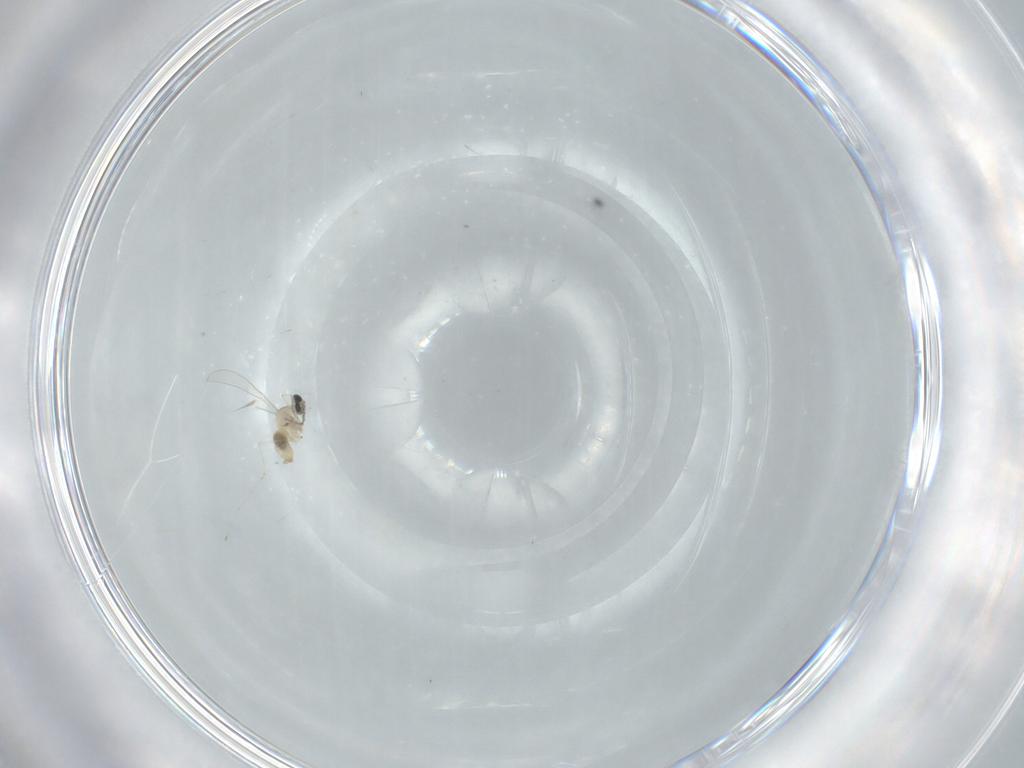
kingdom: Animalia
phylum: Arthropoda
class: Insecta
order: Diptera
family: Cecidomyiidae
